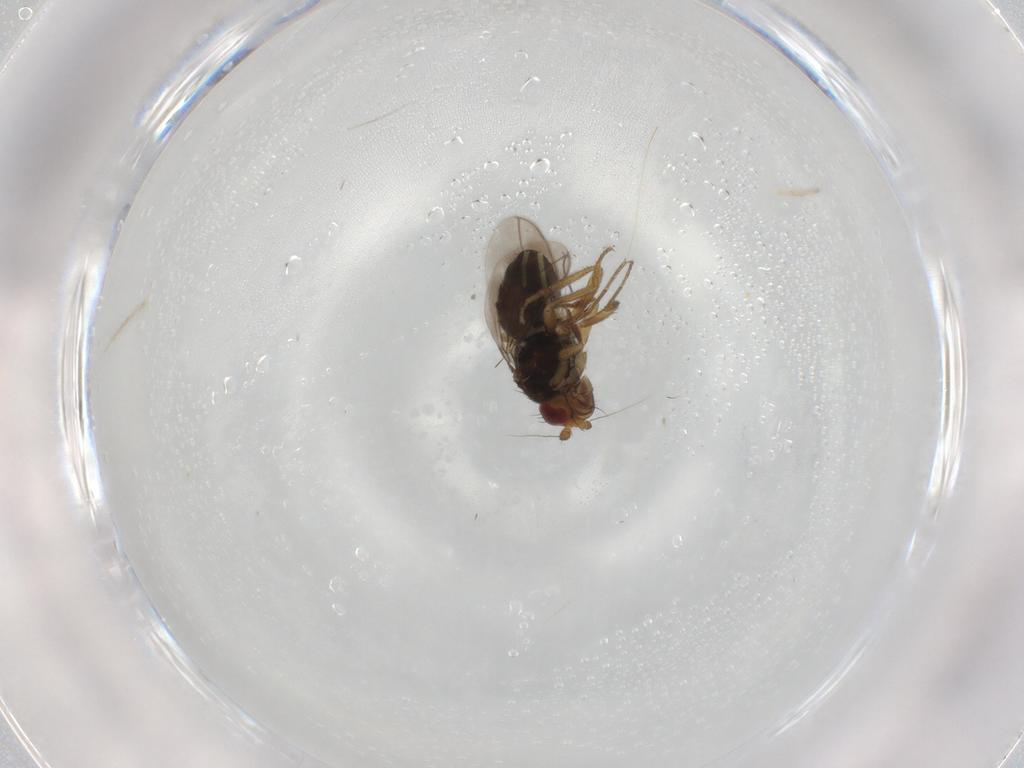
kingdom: Animalia
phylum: Arthropoda
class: Insecta
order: Diptera
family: Sphaeroceridae
